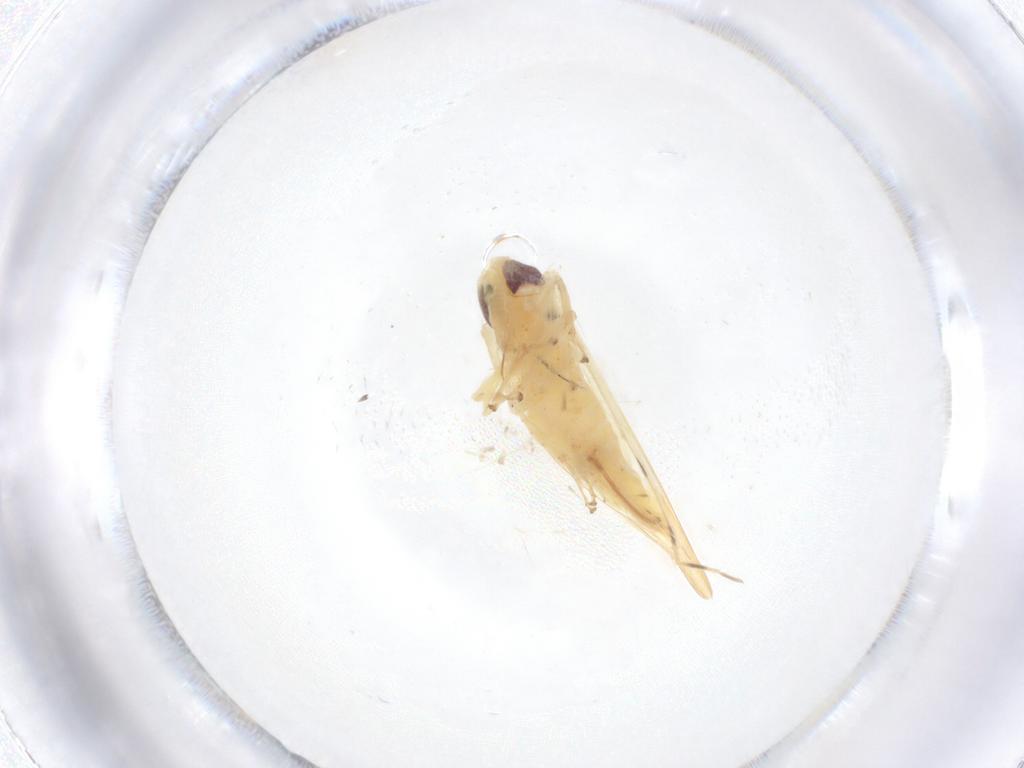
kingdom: Animalia
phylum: Arthropoda
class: Insecta
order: Hemiptera
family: Cicadellidae
